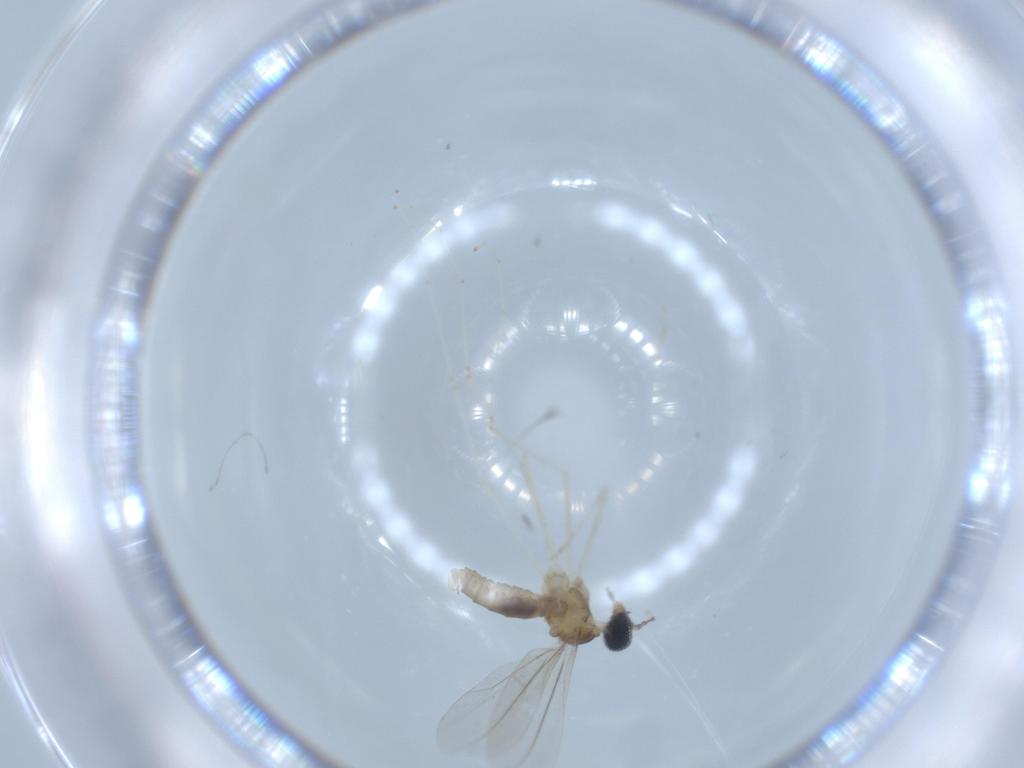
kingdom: Animalia
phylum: Arthropoda
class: Insecta
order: Diptera
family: Cecidomyiidae
